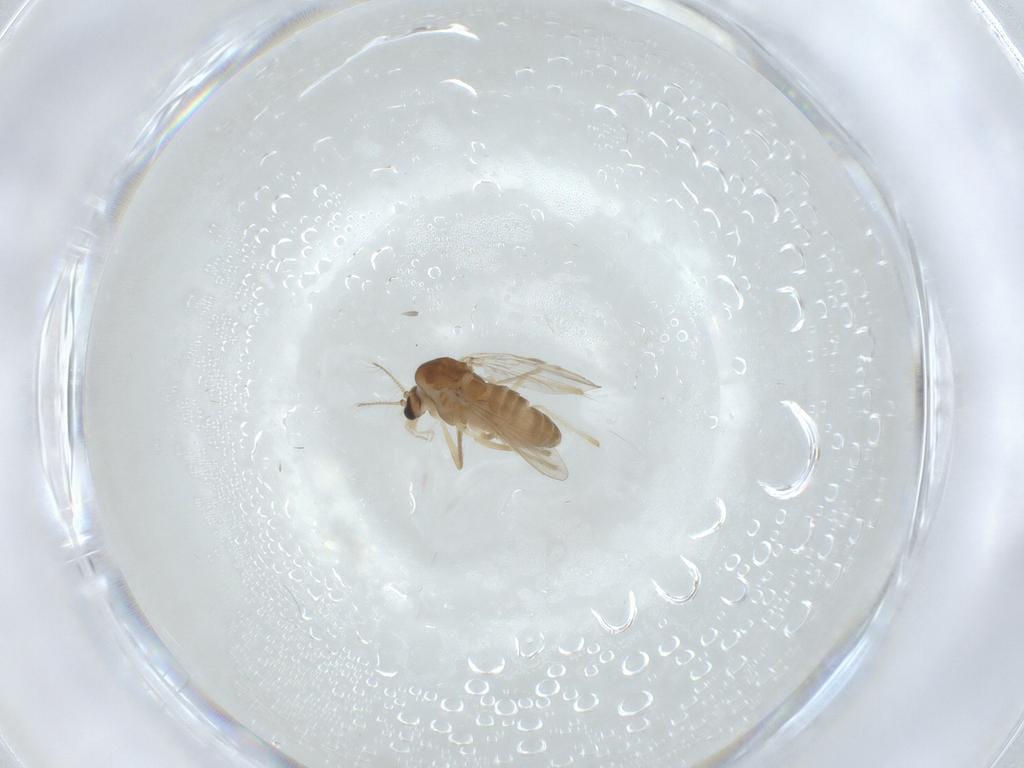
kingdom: Animalia
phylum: Arthropoda
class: Insecta
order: Diptera
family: Chironomidae
